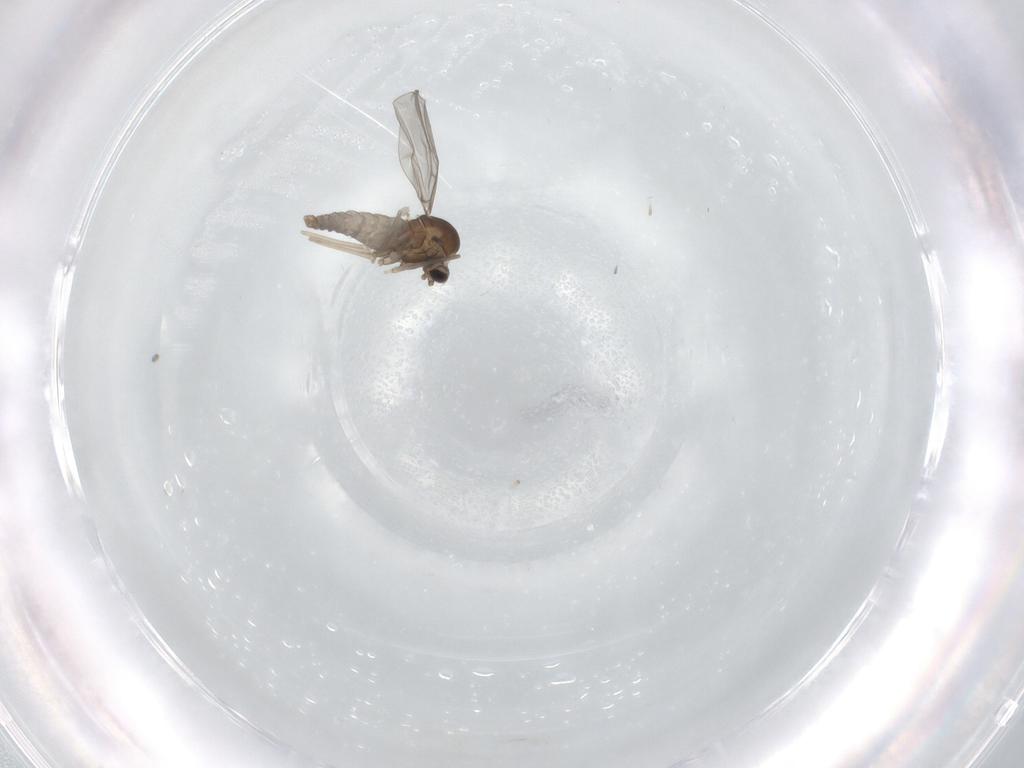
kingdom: Animalia
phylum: Arthropoda
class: Insecta
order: Diptera
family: Cecidomyiidae
